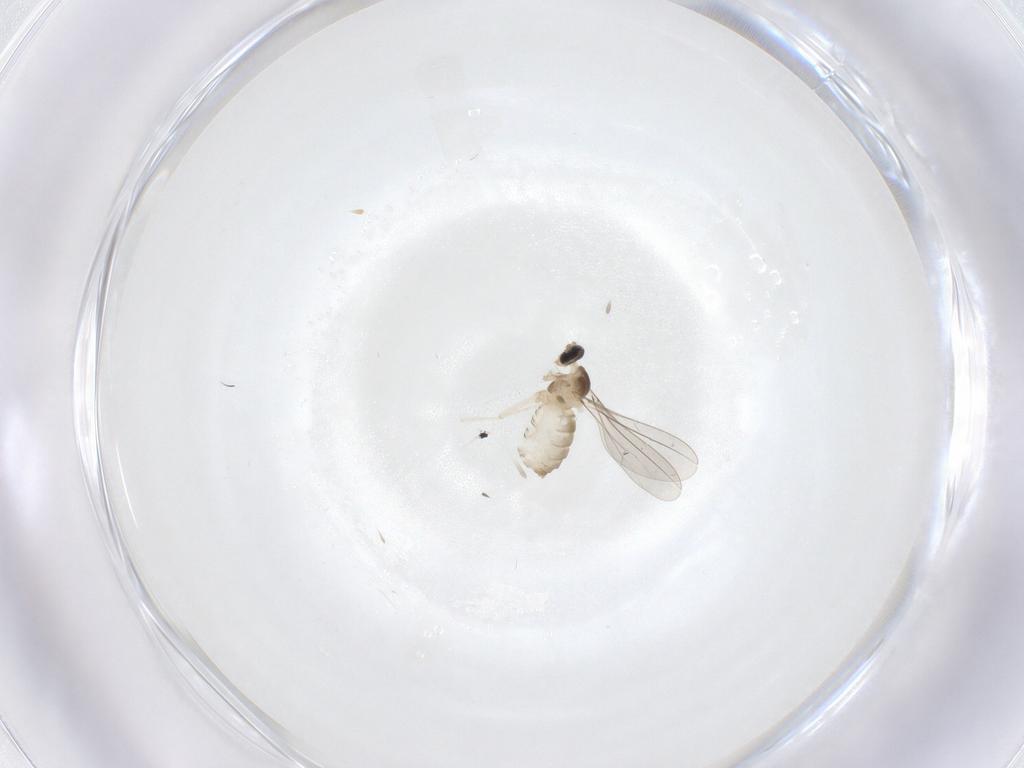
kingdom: Animalia
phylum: Arthropoda
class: Insecta
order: Diptera
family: Cecidomyiidae
